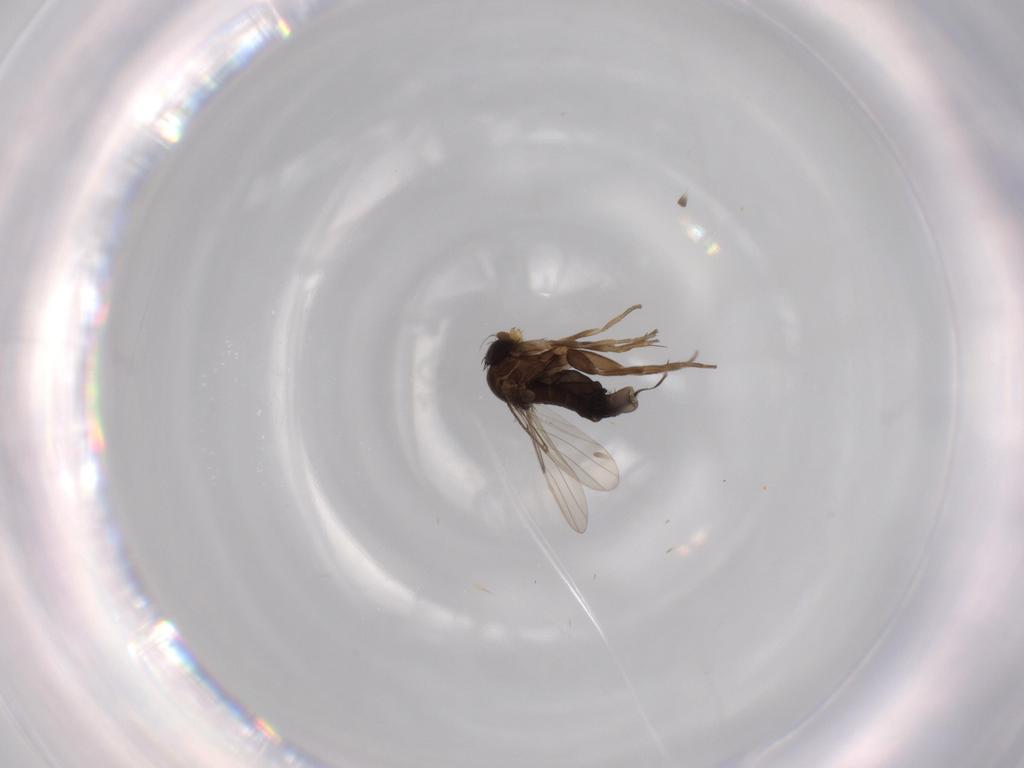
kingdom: Animalia
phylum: Arthropoda
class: Insecta
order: Diptera
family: Phoridae
